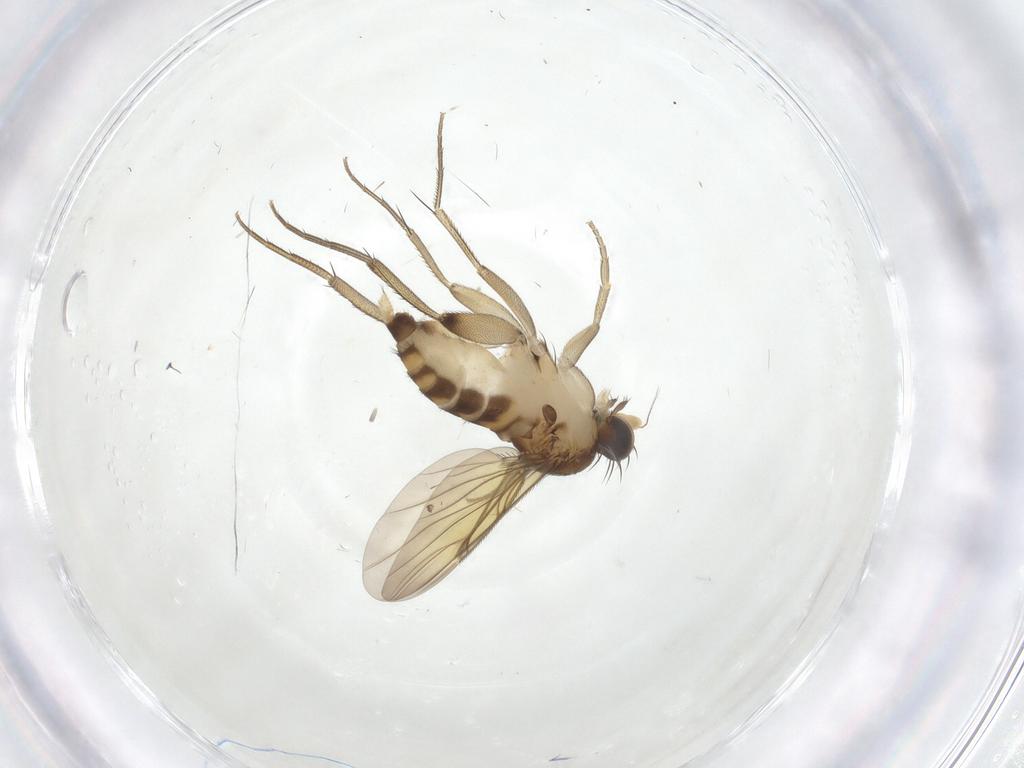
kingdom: Animalia
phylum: Arthropoda
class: Insecta
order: Diptera
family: Phoridae
